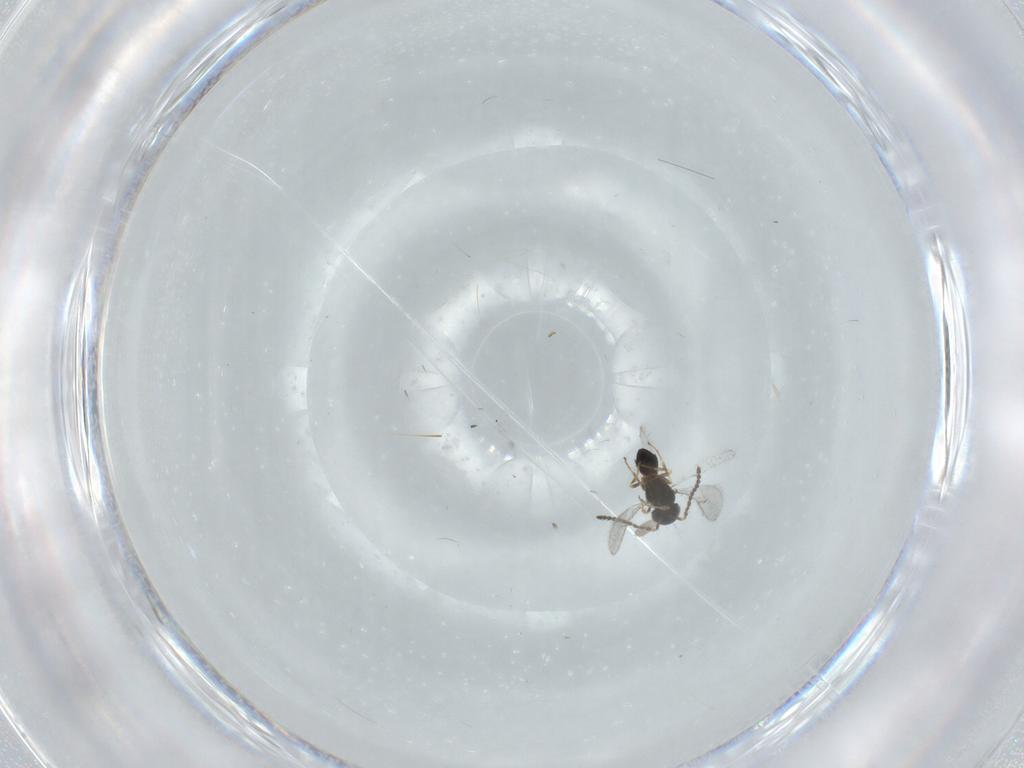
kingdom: Animalia
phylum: Arthropoda
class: Insecta
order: Hymenoptera
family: Scelionidae
